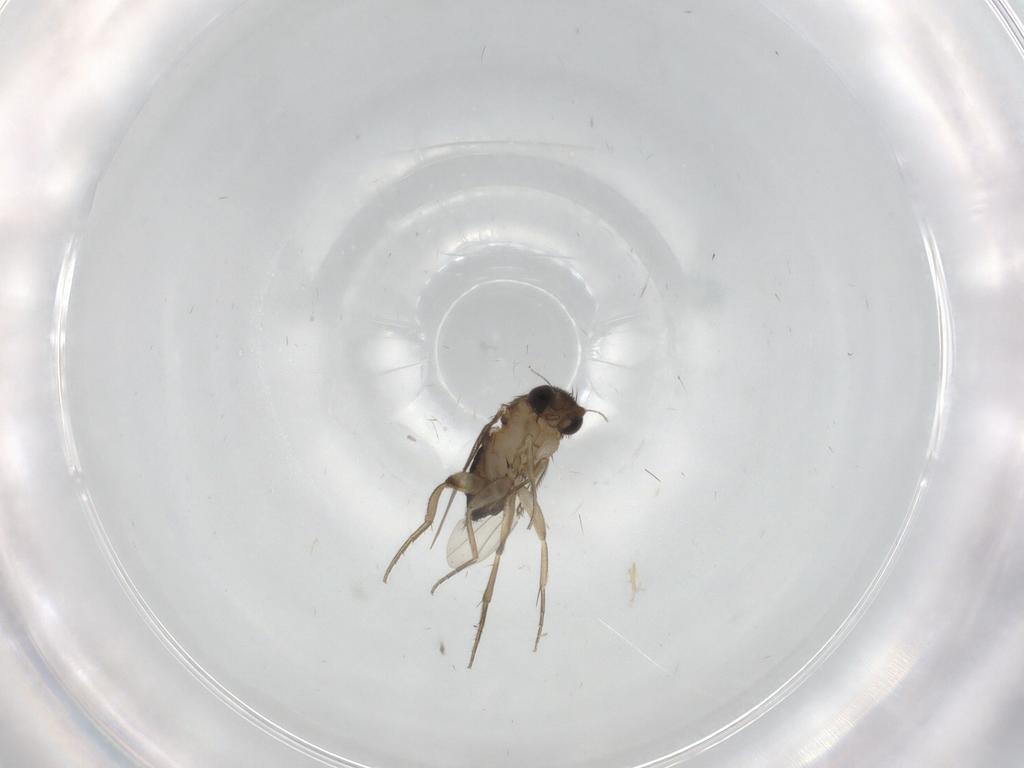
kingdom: Animalia
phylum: Arthropoda
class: Insecta
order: Diptera
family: Phoridae
